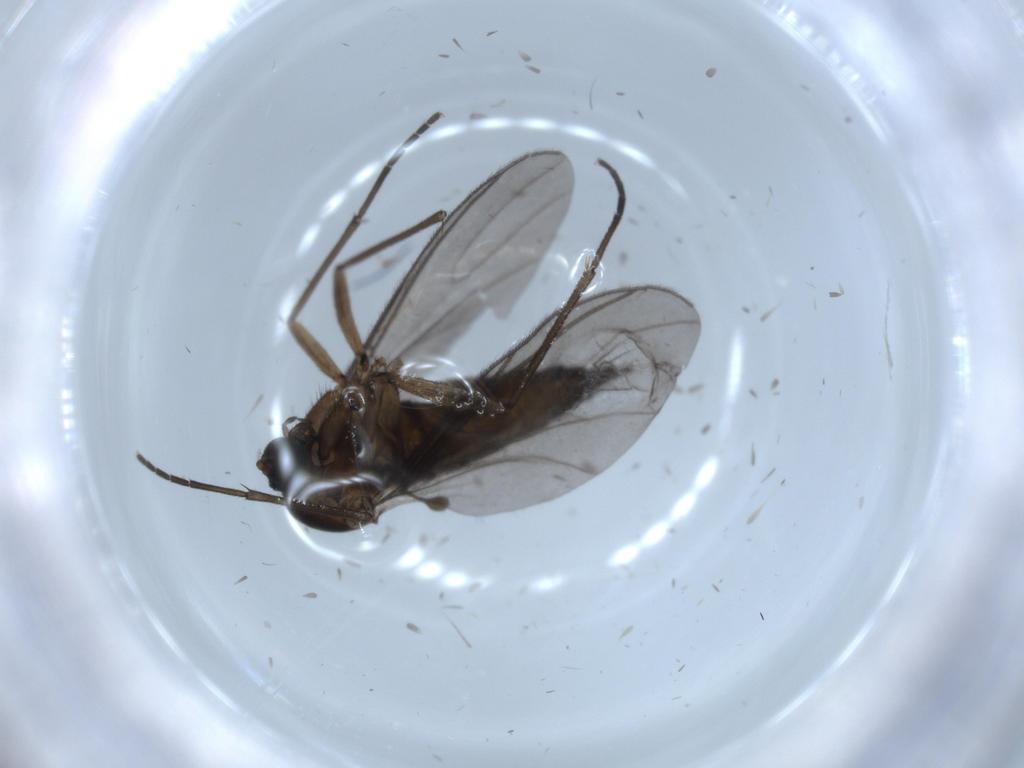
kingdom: Animalia
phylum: Arthropoda
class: Insecta
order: Diptera
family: Sciaridae
